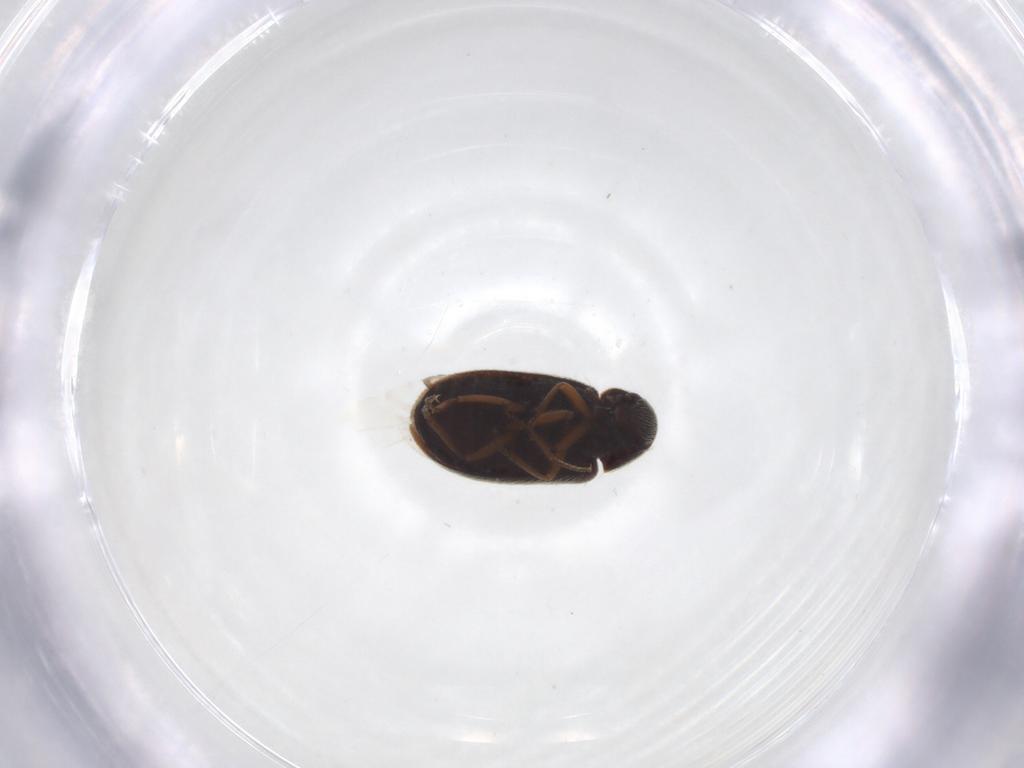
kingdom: Animalia
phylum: Arthropoda
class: Insecta
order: Coleoptera
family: Rhadalidae
